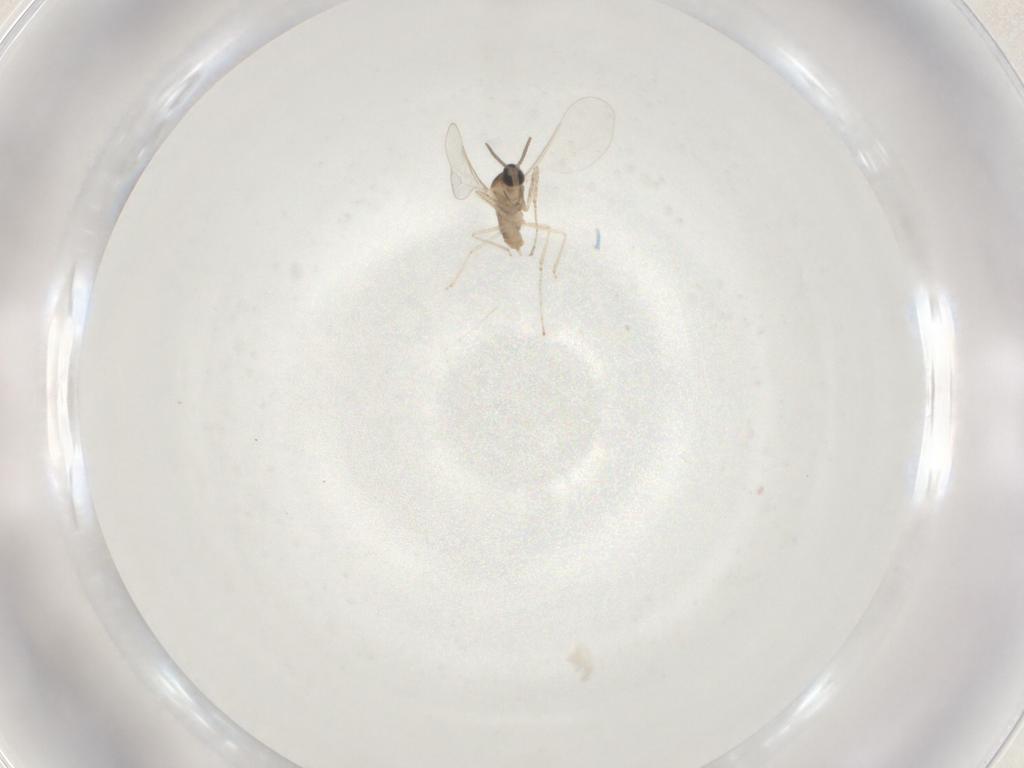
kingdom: Animalia
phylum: Arthropoda
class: Insecta
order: Diptera
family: Cecidomyiidae
